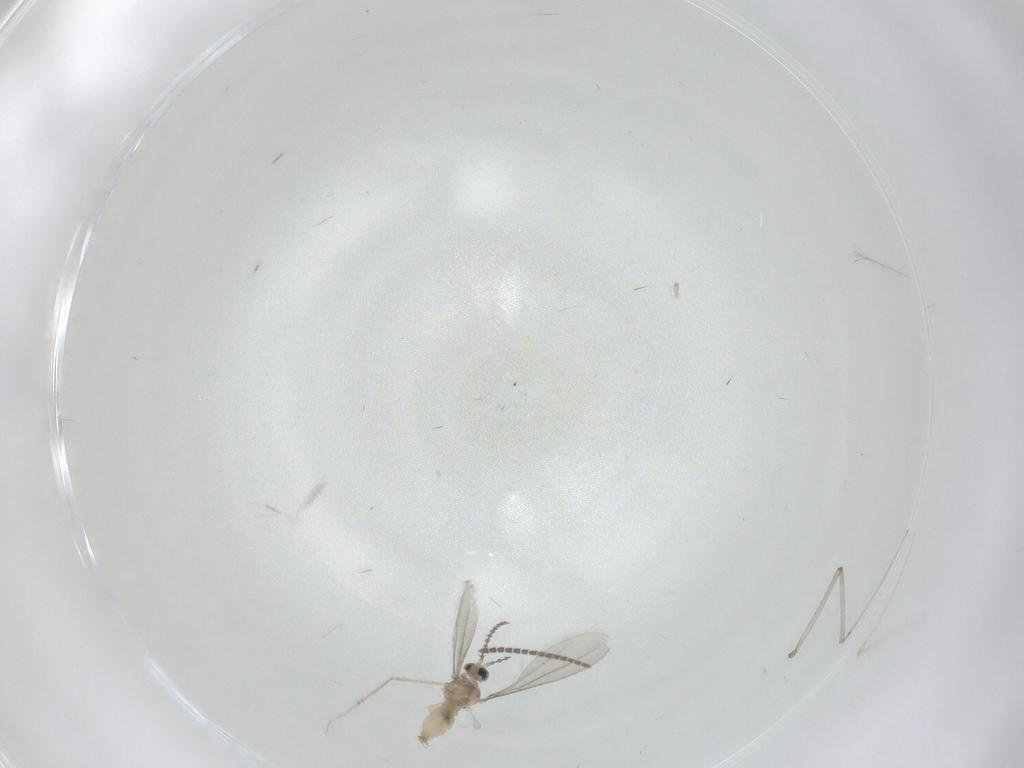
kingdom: Animalia
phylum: Arthropoda
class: Insecta
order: Diptera
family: Cecidomyiidae
